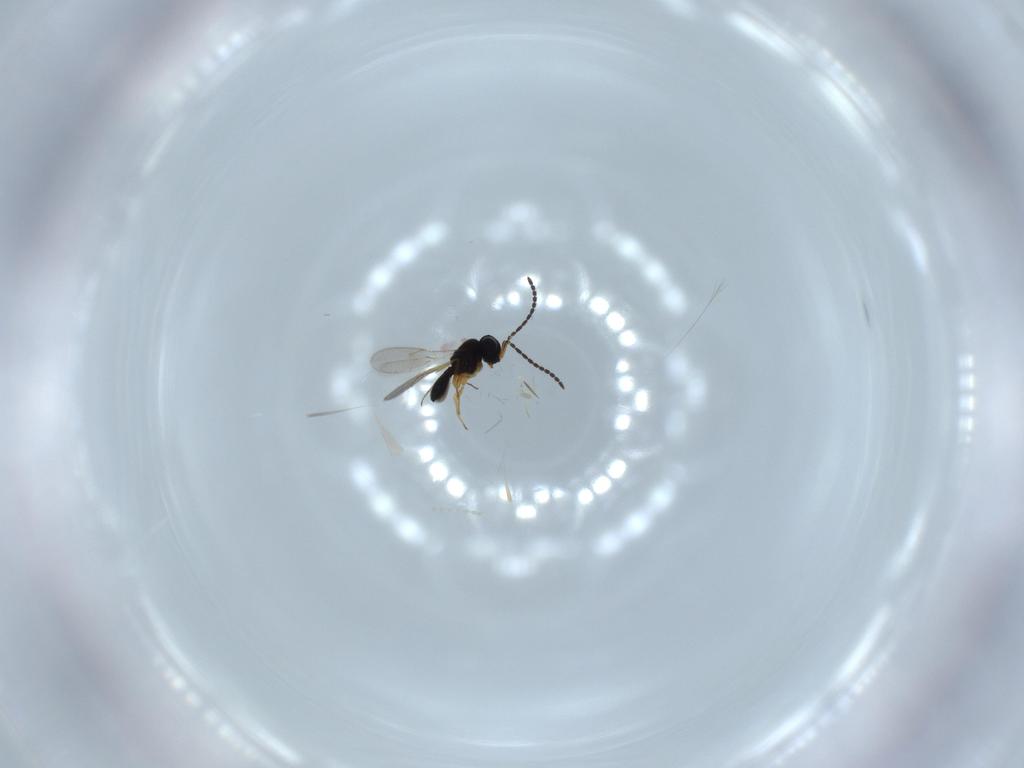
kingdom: Animalia
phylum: Arthropoda
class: Insecta
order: Hymenoptera
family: Scelionidae
